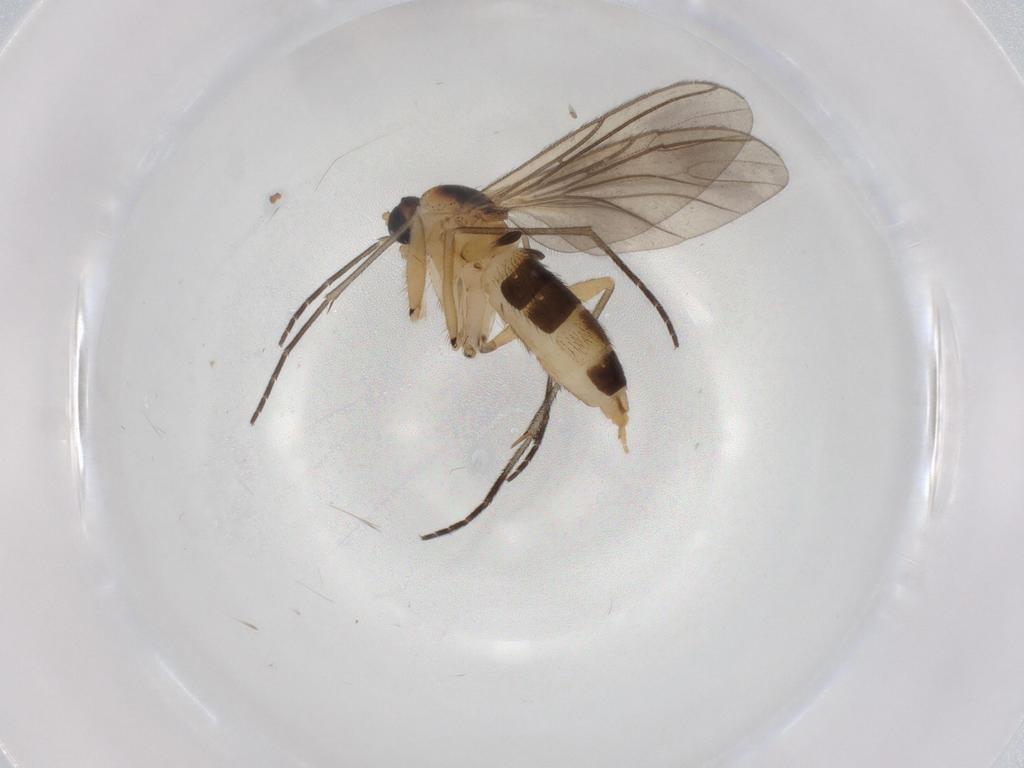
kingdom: Animalia
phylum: Arthropoda
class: Insecta
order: Diptera
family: Sciaridae
